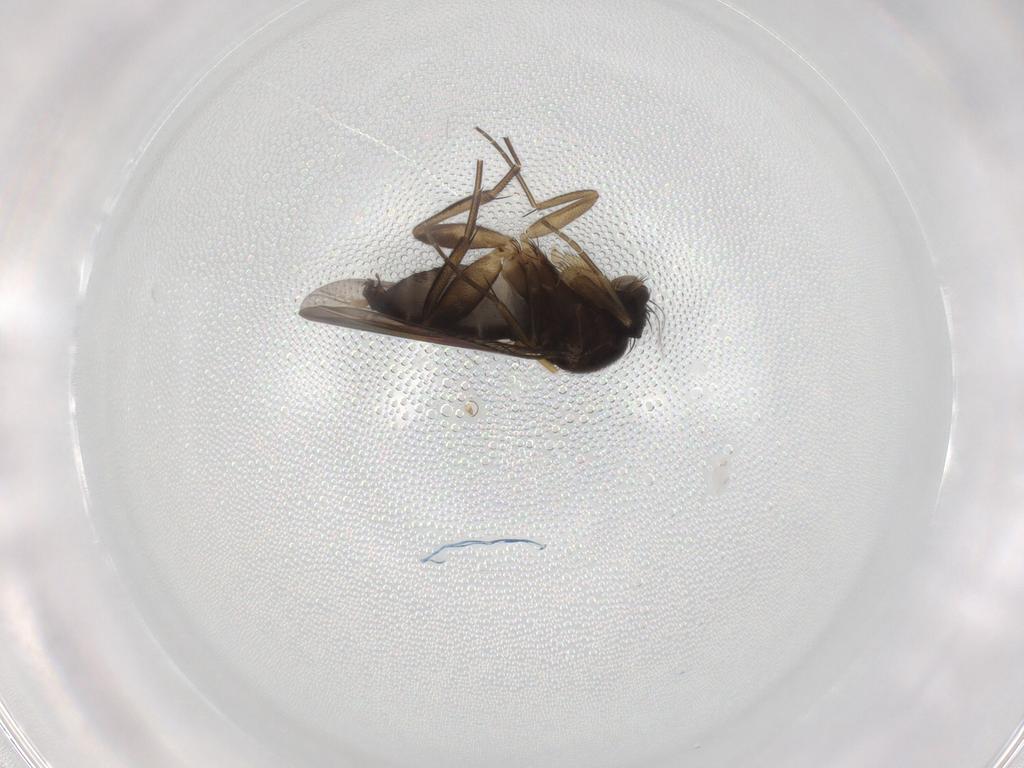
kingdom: Animalia
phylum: Arthropoda
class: Insecta
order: Diptera
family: Phoridae
